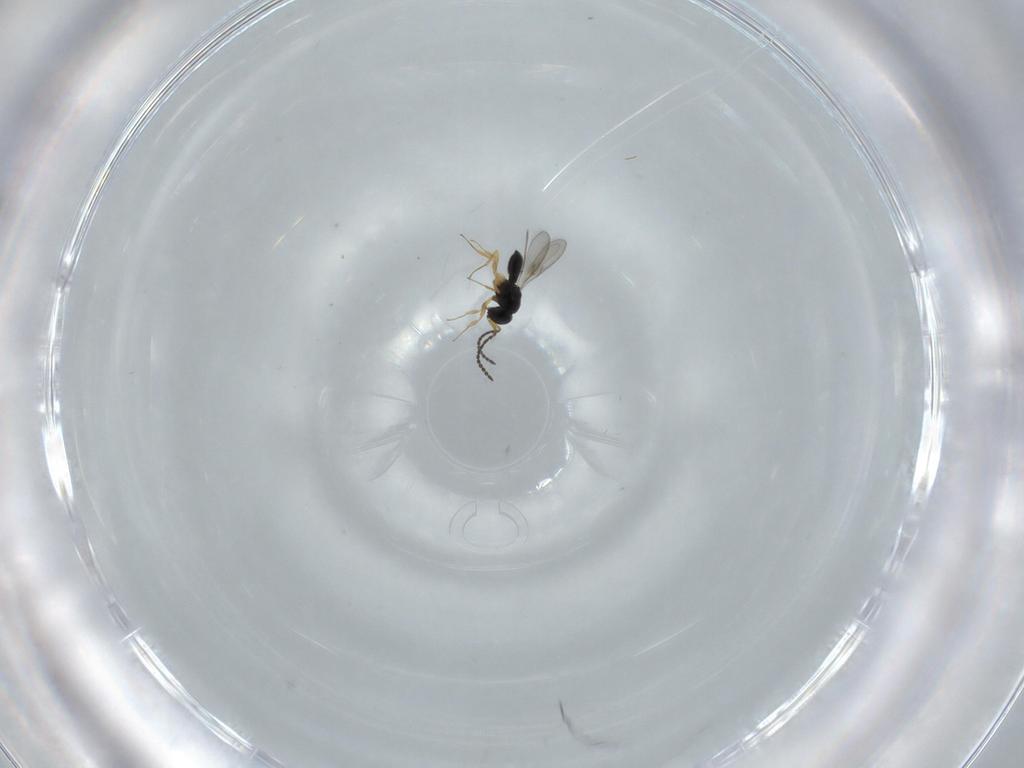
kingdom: Animalia
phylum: Arthropoda
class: Insecta
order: Hymenoptera
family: Scelionidae
